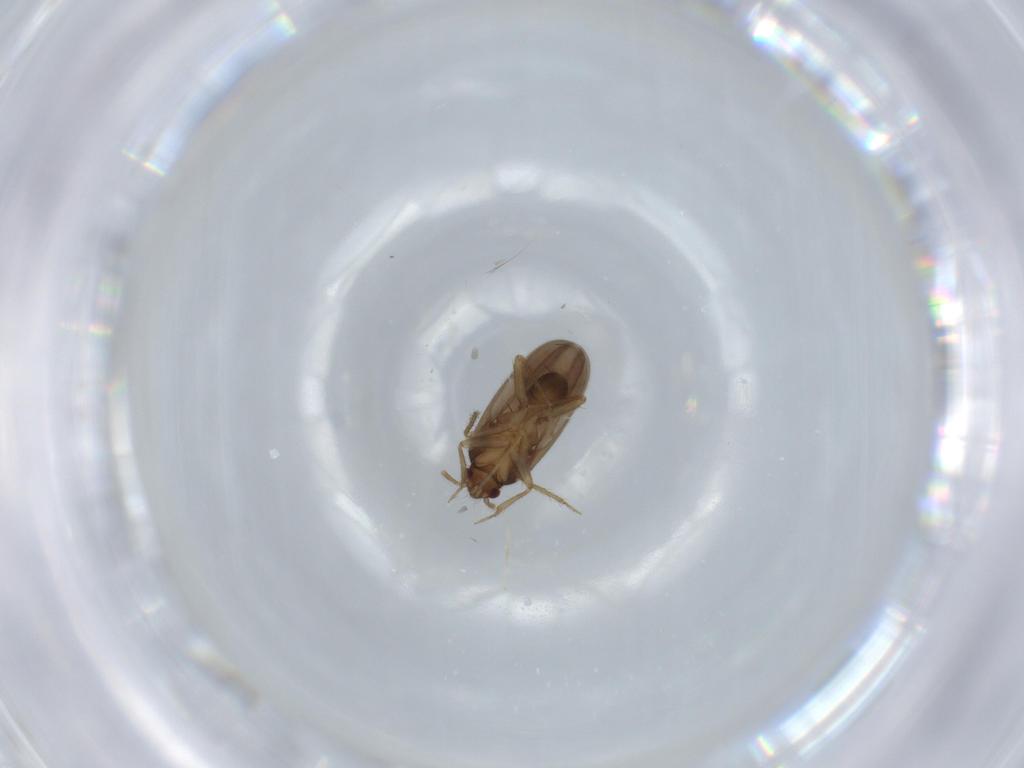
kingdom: Animalia
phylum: Arthropoda
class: Insecta
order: Hemiptera
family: Ceratocombidae
